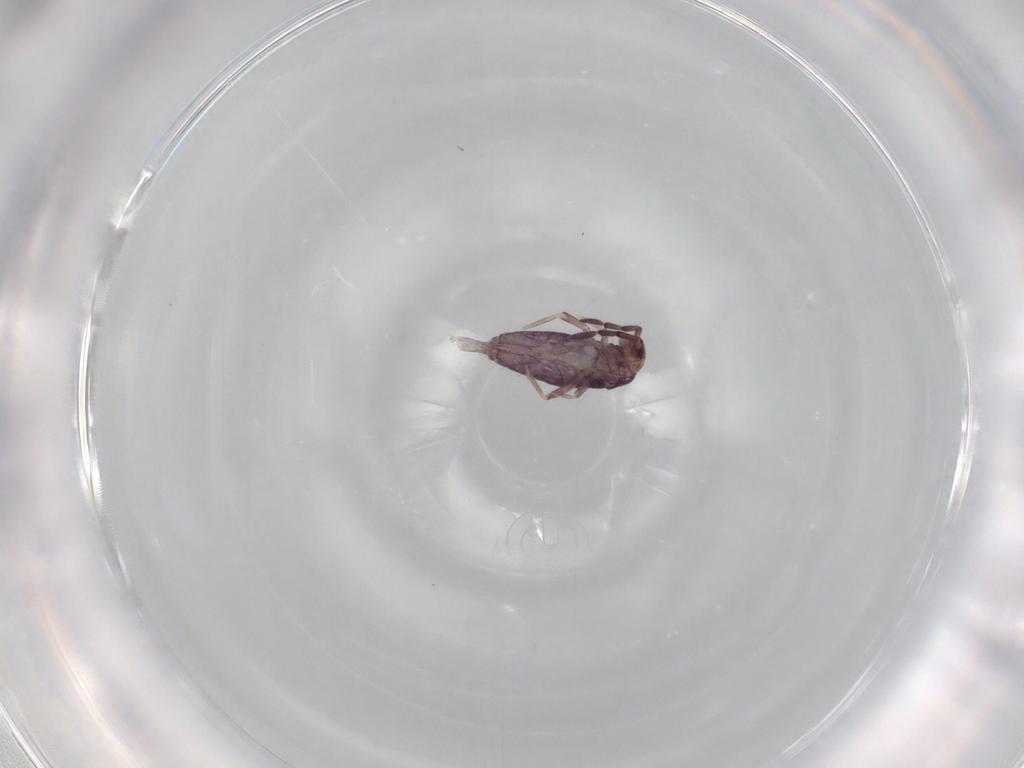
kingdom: Animalia
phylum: Arthropoda
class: Collembola
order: Entomobryomorpha
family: Entomobryidae
